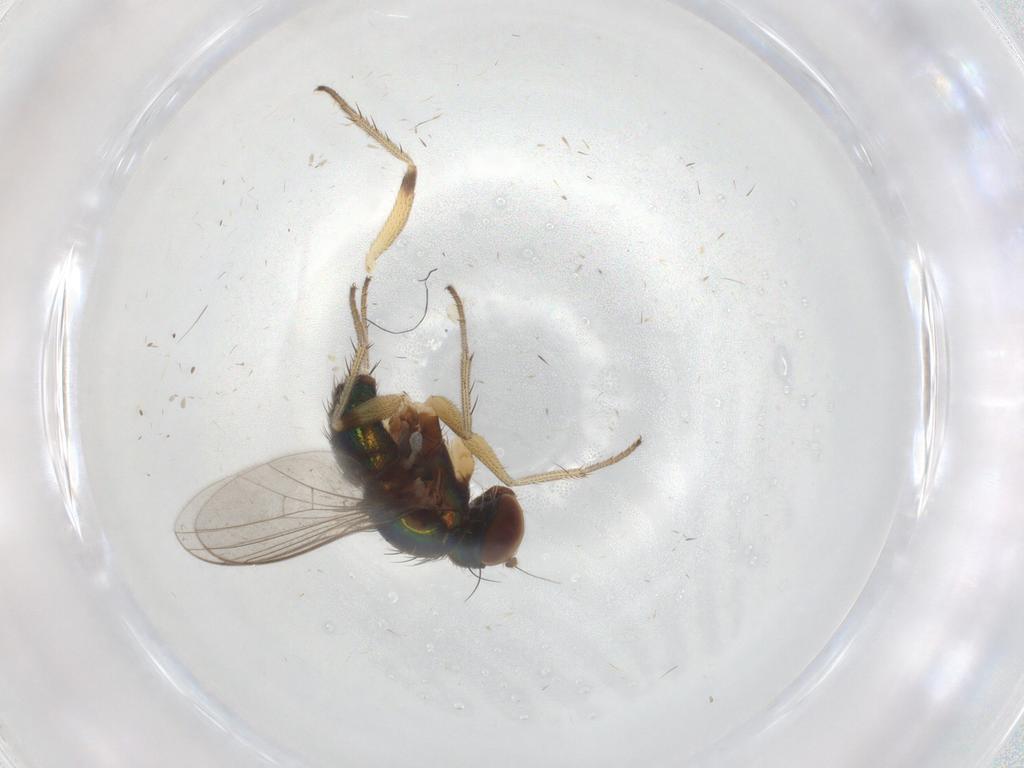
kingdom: Animalia
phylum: Arthropoda
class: Insecta
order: Diptera
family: Dolichopodidae
